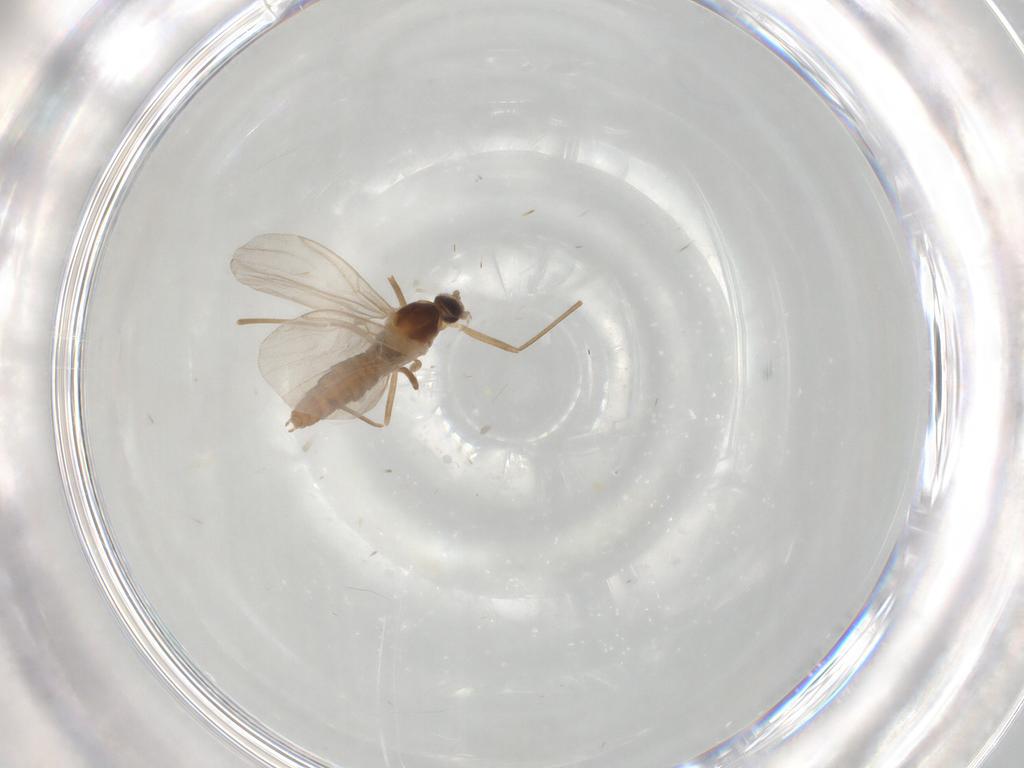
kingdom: Animalia
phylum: Arthropoda
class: Insecta
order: Diptera
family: Cecidomyiidae
